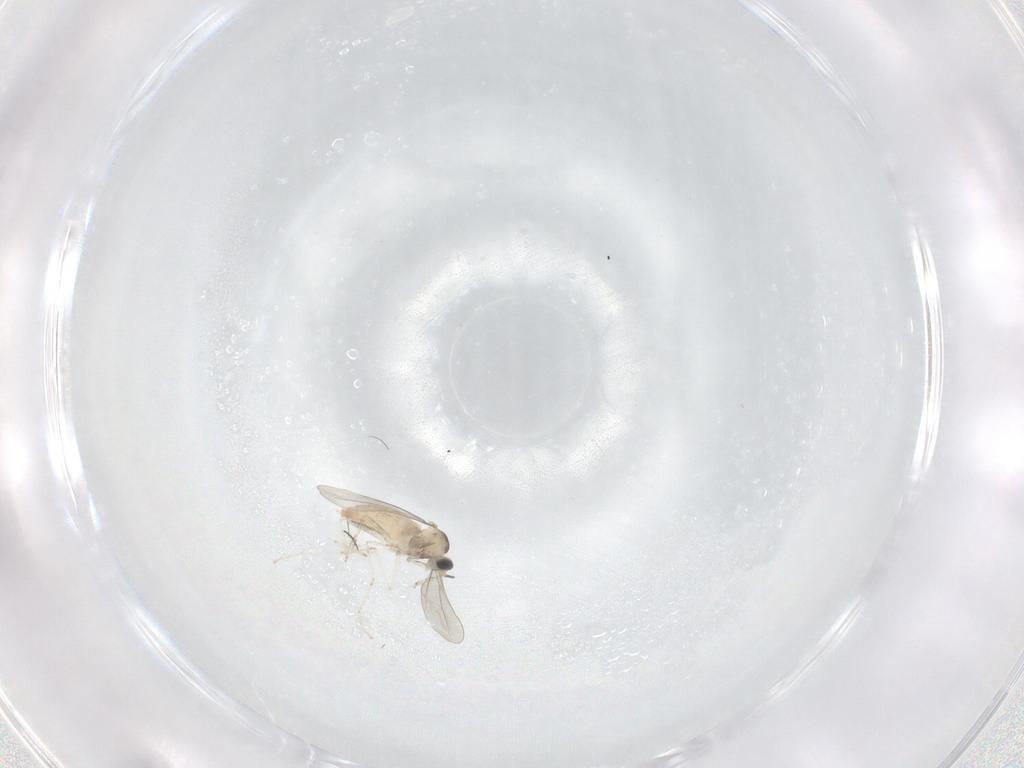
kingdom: Animalia
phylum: Arthropoda
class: Insecta
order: Diptera
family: Cecidomyiidae
